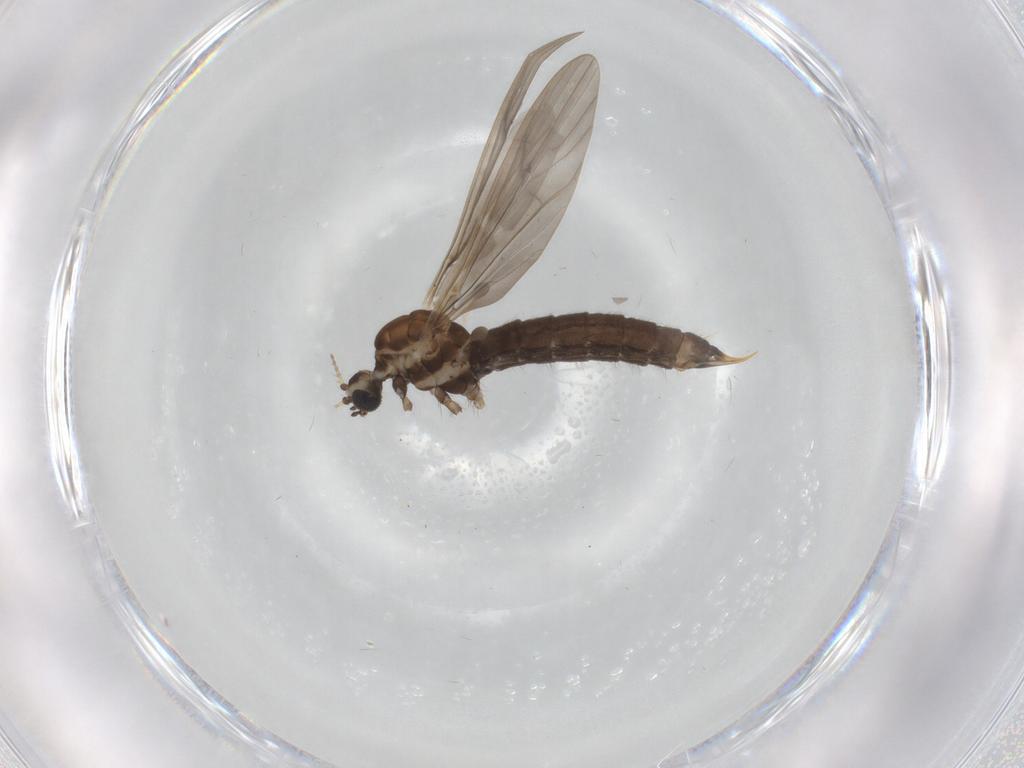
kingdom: Animalia
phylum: Arthropoda
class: Insecta
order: Diptera
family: Limoniidae
